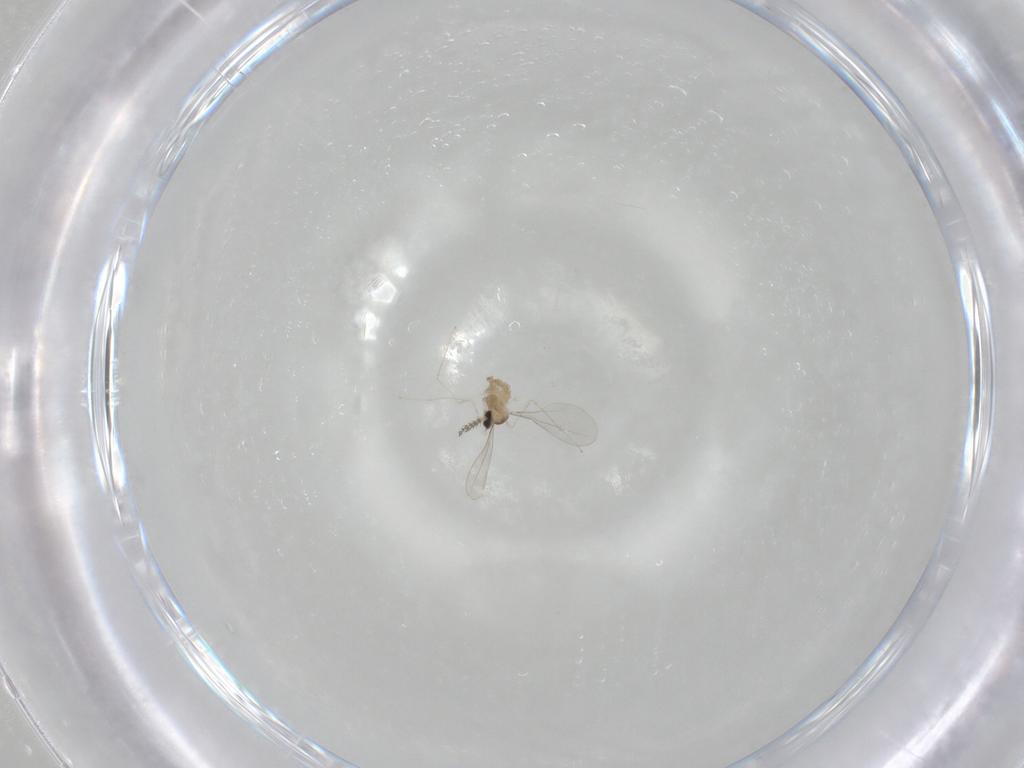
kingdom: Animalia
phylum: Arthropoda
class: Insecta
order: Diptera
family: Cecidomyiidae
